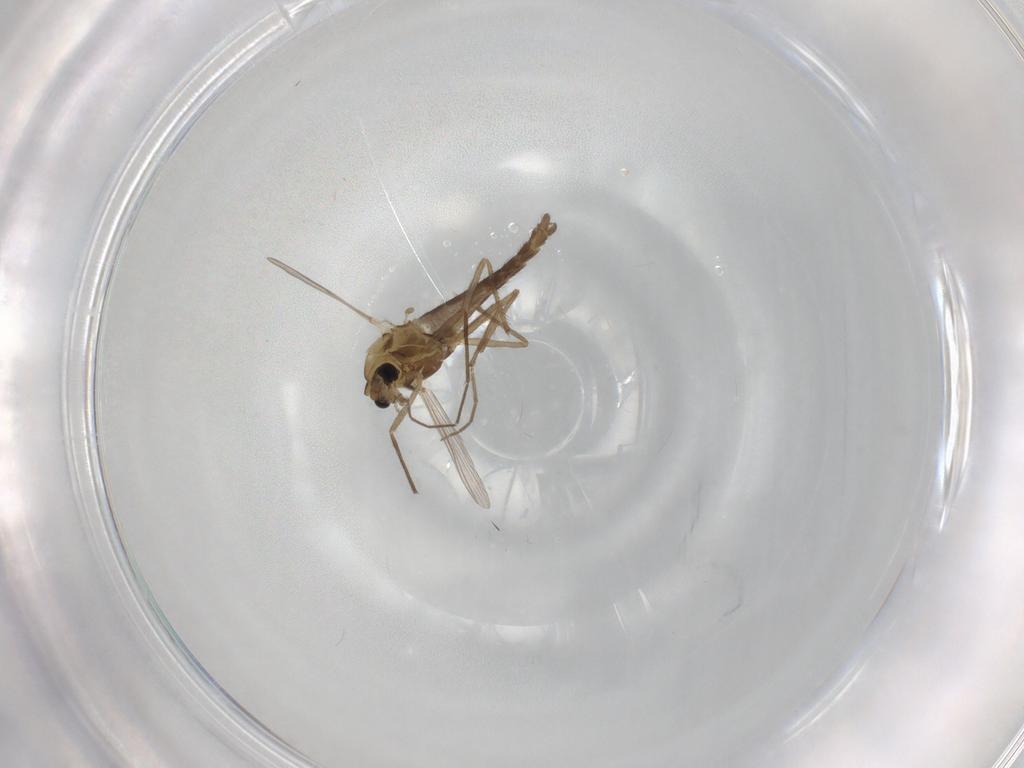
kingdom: Animalia
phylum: Arthropoda
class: Insecta
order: Diptera
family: Chironomidae
